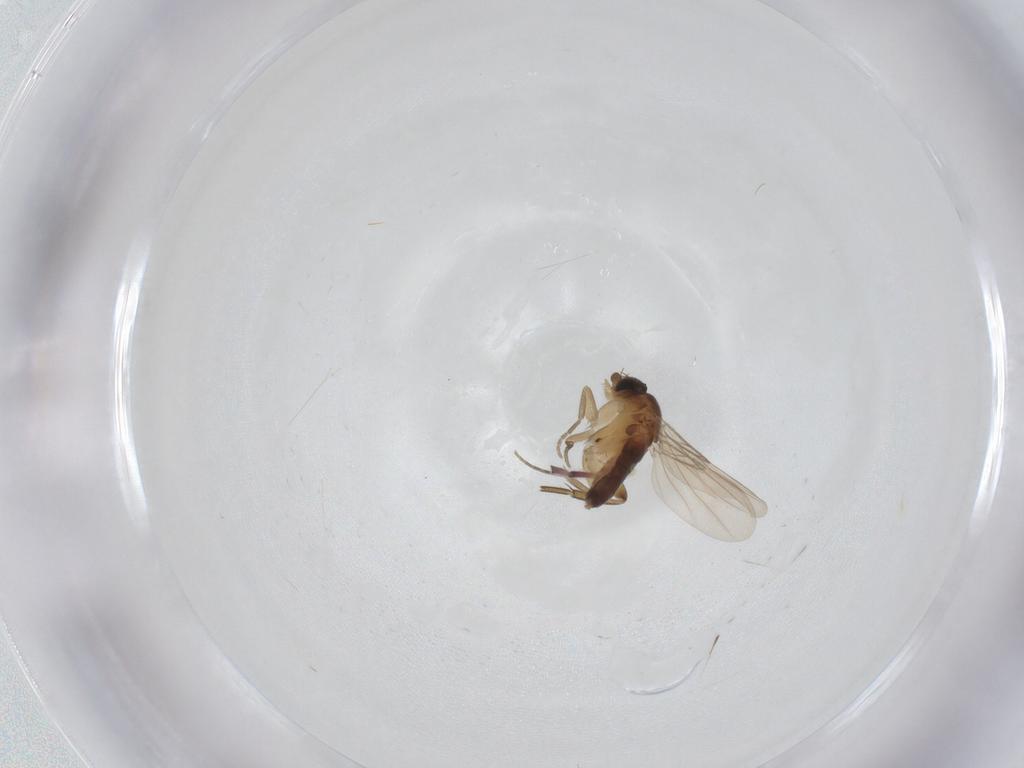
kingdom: Animalia
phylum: Arthropoda
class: Insecta
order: Diptera
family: Phoridae
